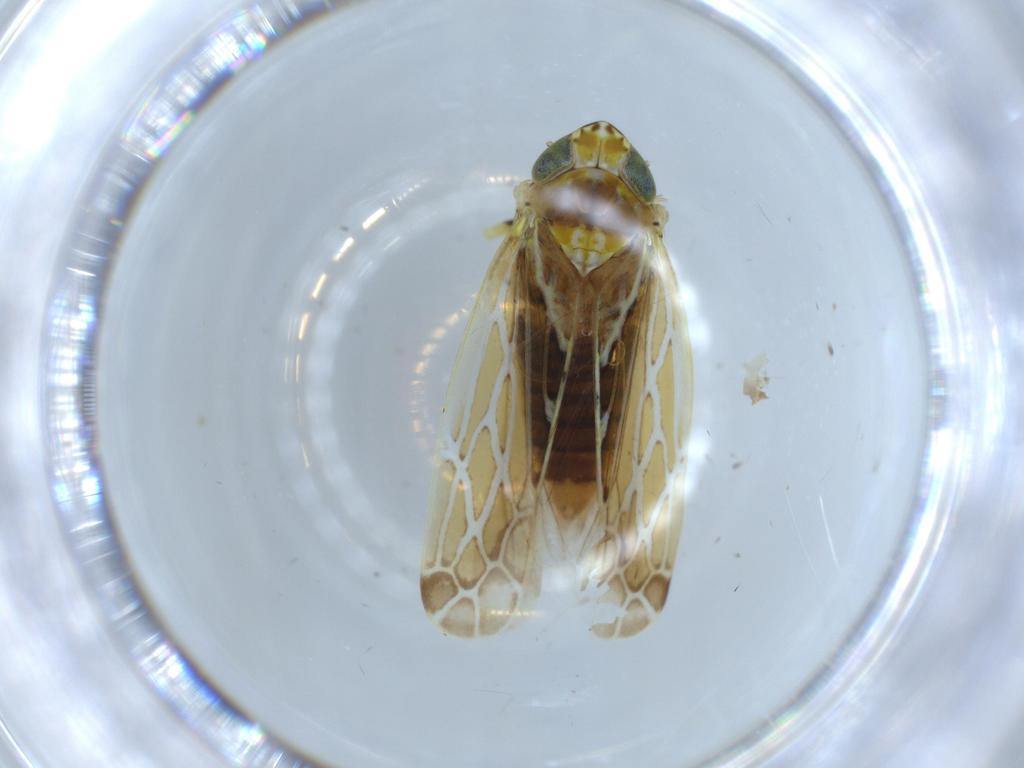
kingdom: Animalia
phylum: Arthropoda
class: Insecta
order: Hemiptera
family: Cicadellidae
